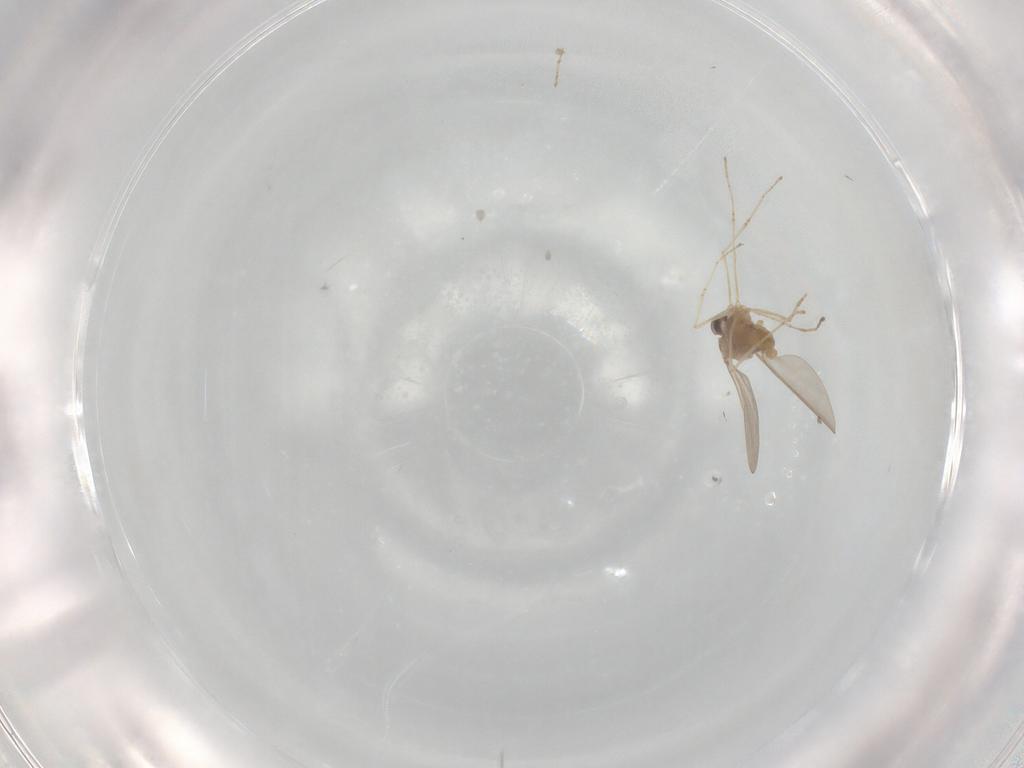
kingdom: Animalia
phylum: Arthropoda
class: Insecta
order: Diptera
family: Cecidomyiidae
